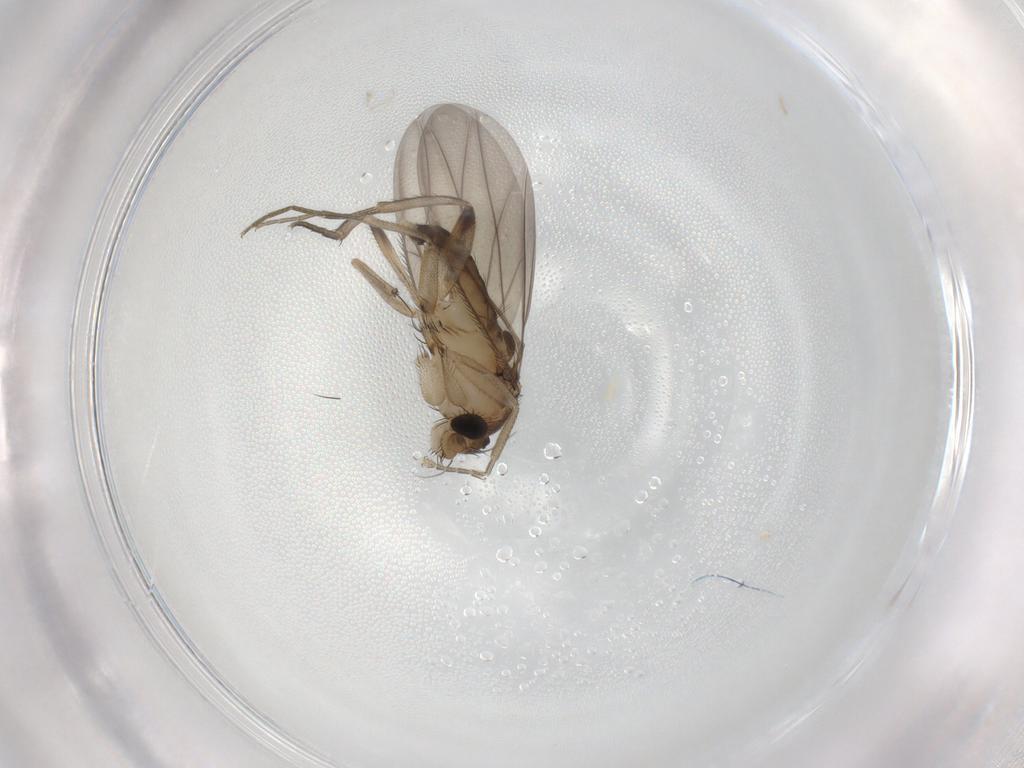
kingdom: Animalia
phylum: Arthropoda
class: Insecta
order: Diptera
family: Phoridae
